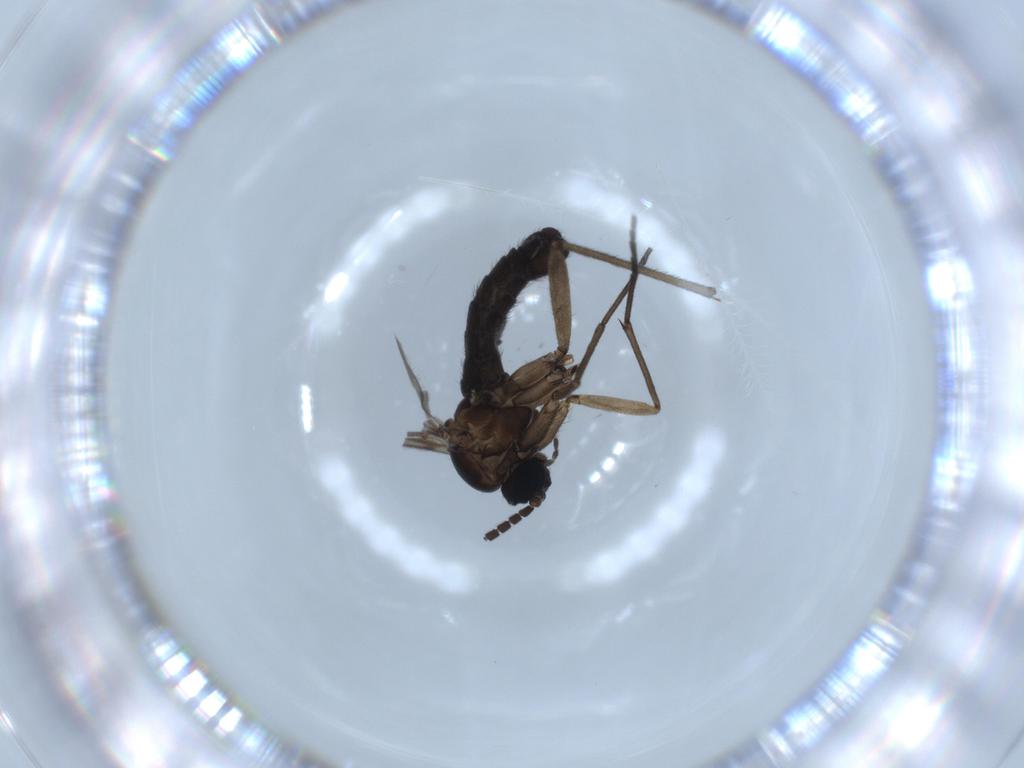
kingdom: Animalia
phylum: Arthropoda
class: Insecta
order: Diptera
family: Sciaridae
